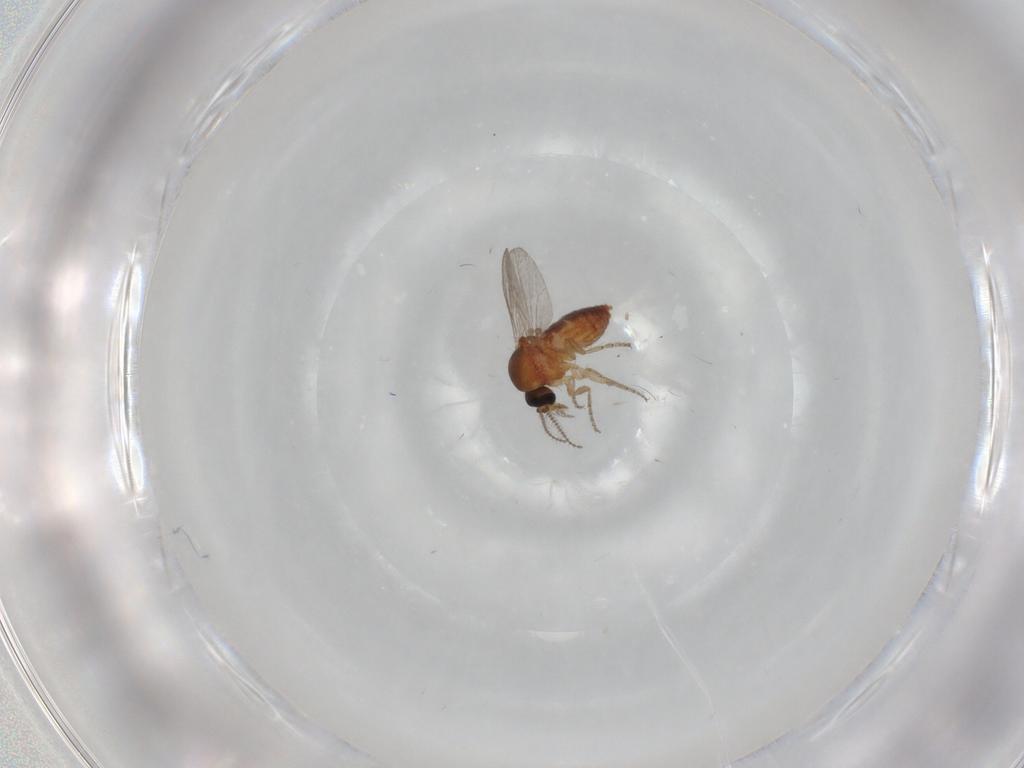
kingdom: Animalia
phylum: Arthropoda
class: Insecta
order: Diptera
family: Ceratopogonidae
